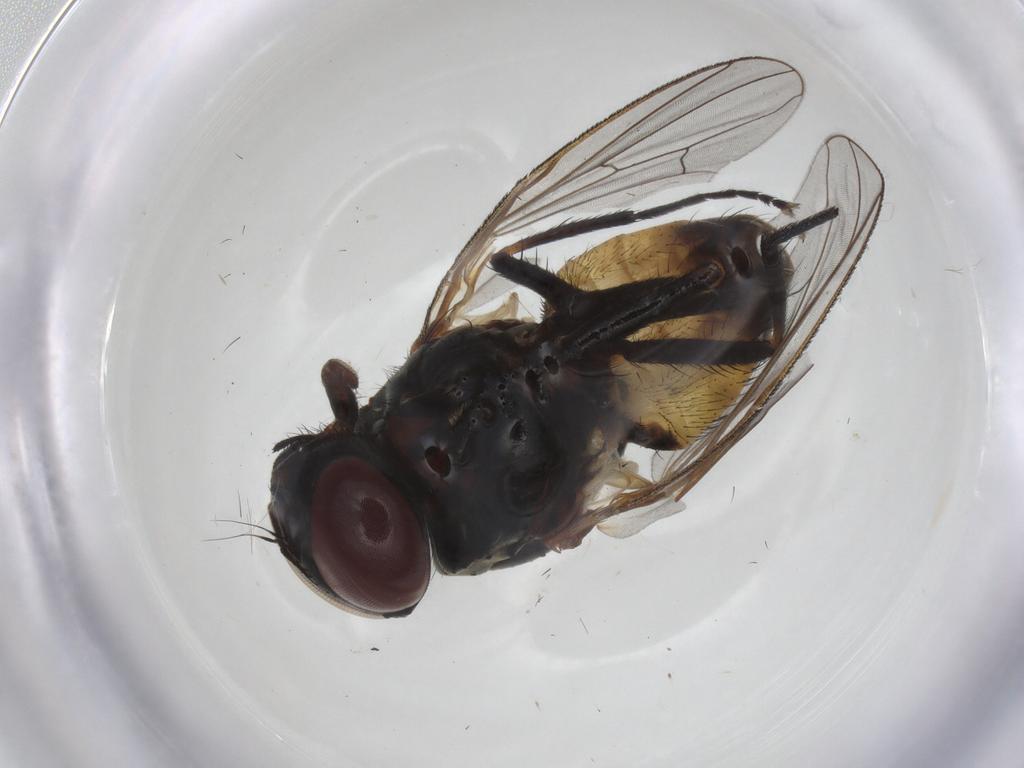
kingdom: Animalia
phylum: Arthropoda
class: Insecta
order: Diptera
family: Muscidae
